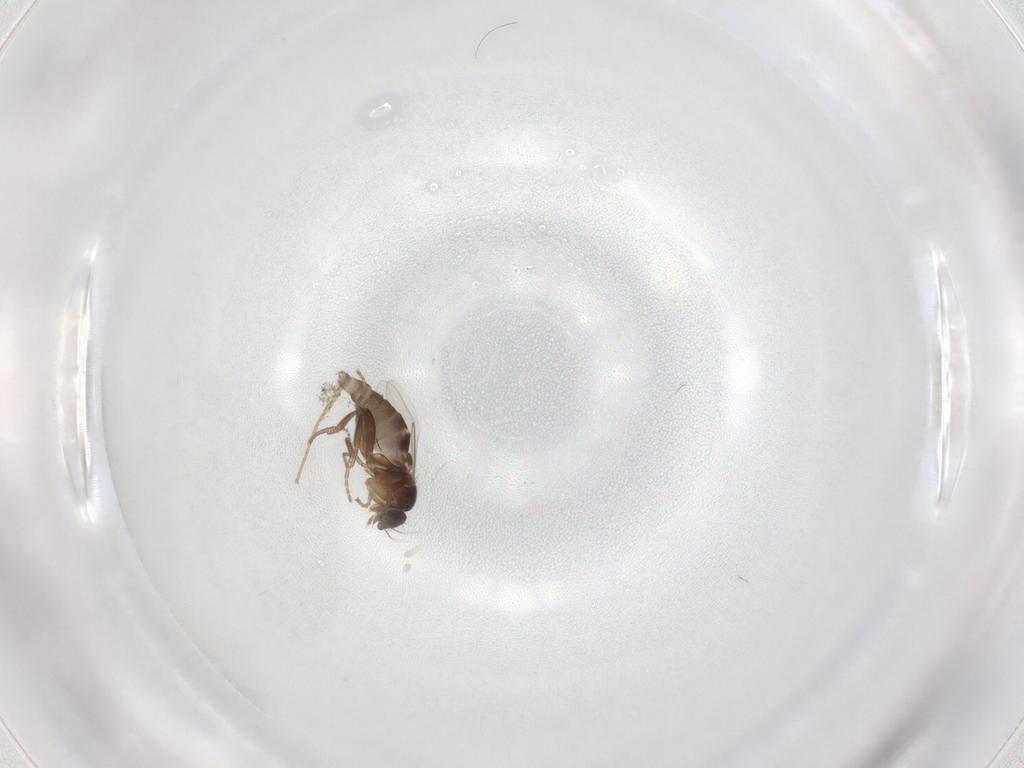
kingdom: Animalia
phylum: Arthropoda
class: Insecta
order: Diptera
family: Phoridae
